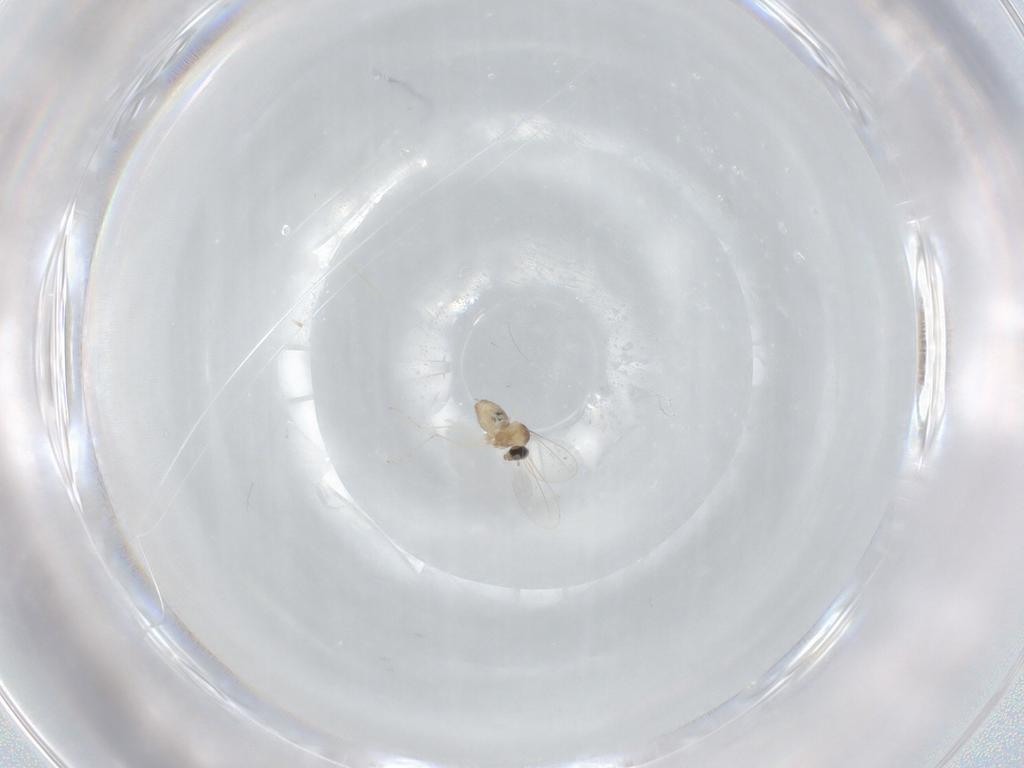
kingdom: Animalia
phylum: Arthropoda
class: Insecta
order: Diptera
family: Cecidomyiidae
